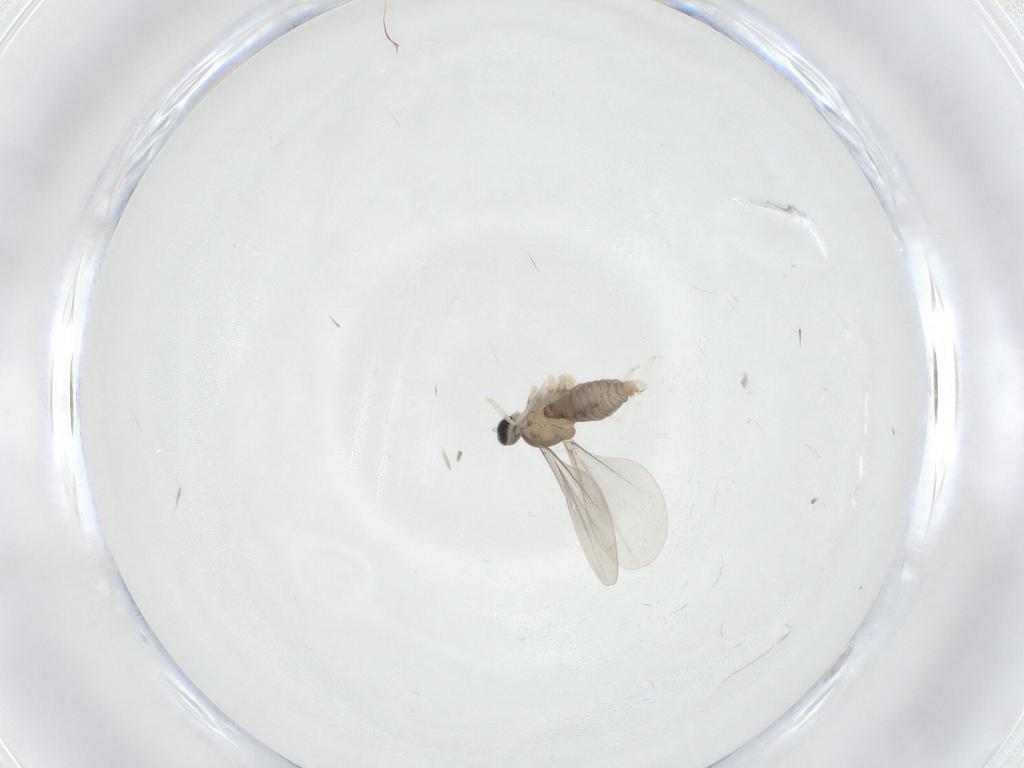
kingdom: Animalia
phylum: Arthropoda
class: Insecta
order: Diptera
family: Cecidomyiidae
